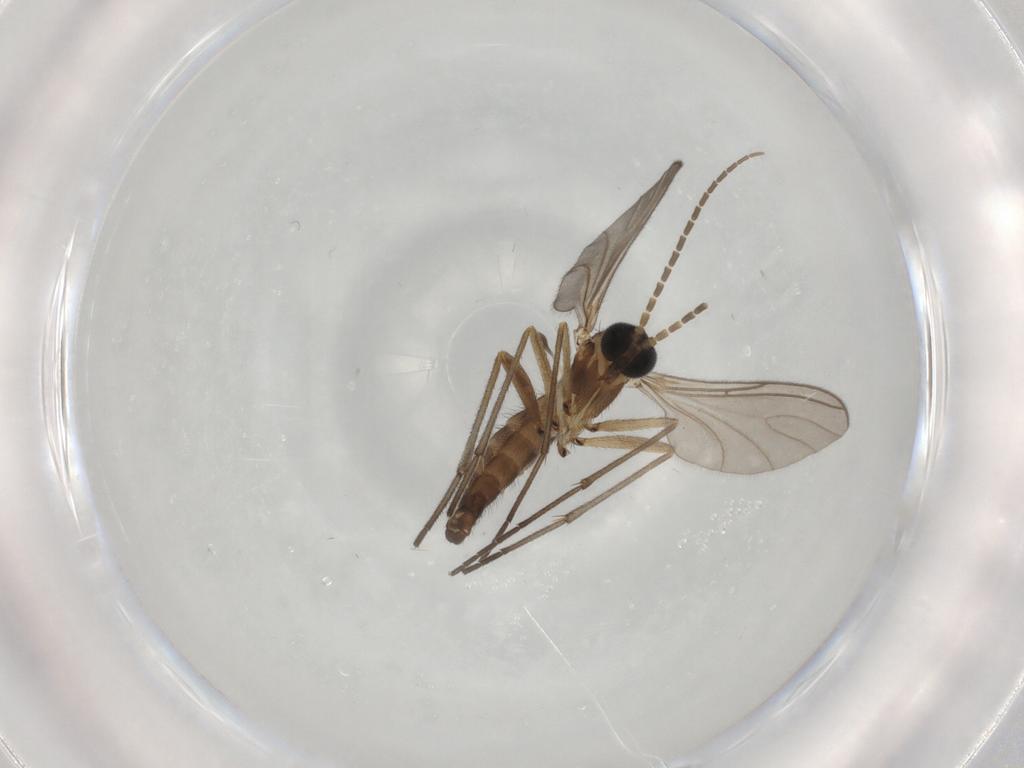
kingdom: Animalia
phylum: Arthropoda
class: Insecta
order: Diptera
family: Sciaridae
